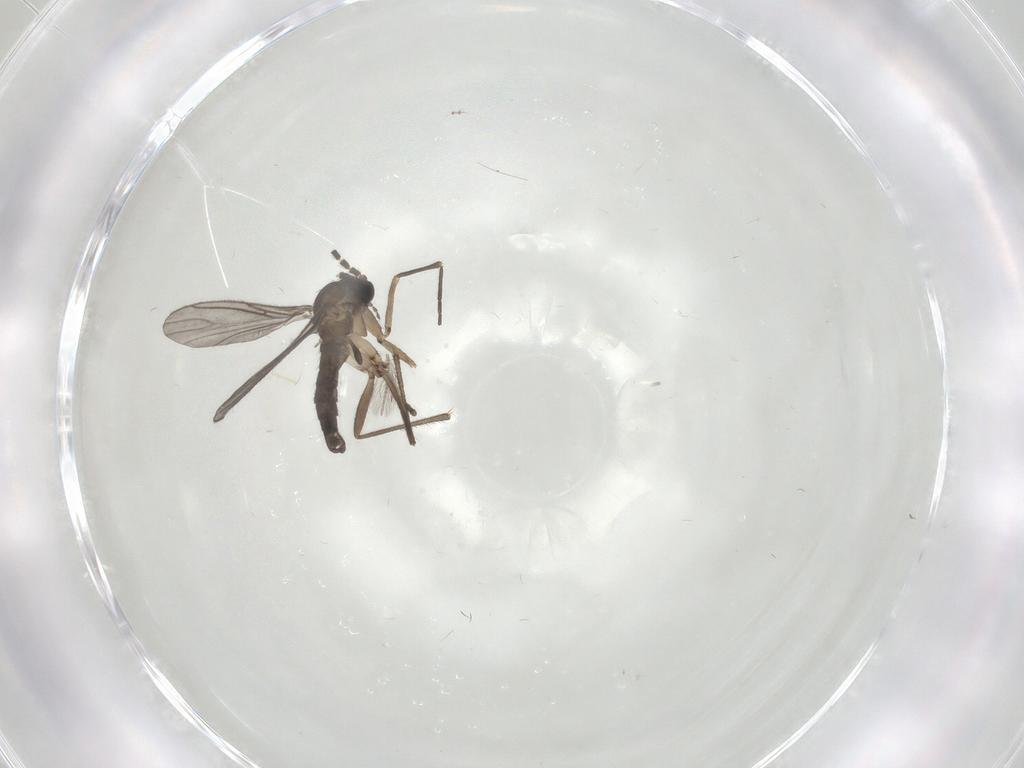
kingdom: Animalia
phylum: Arthropoda
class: Insecta
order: Diptera
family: Sciaridae
